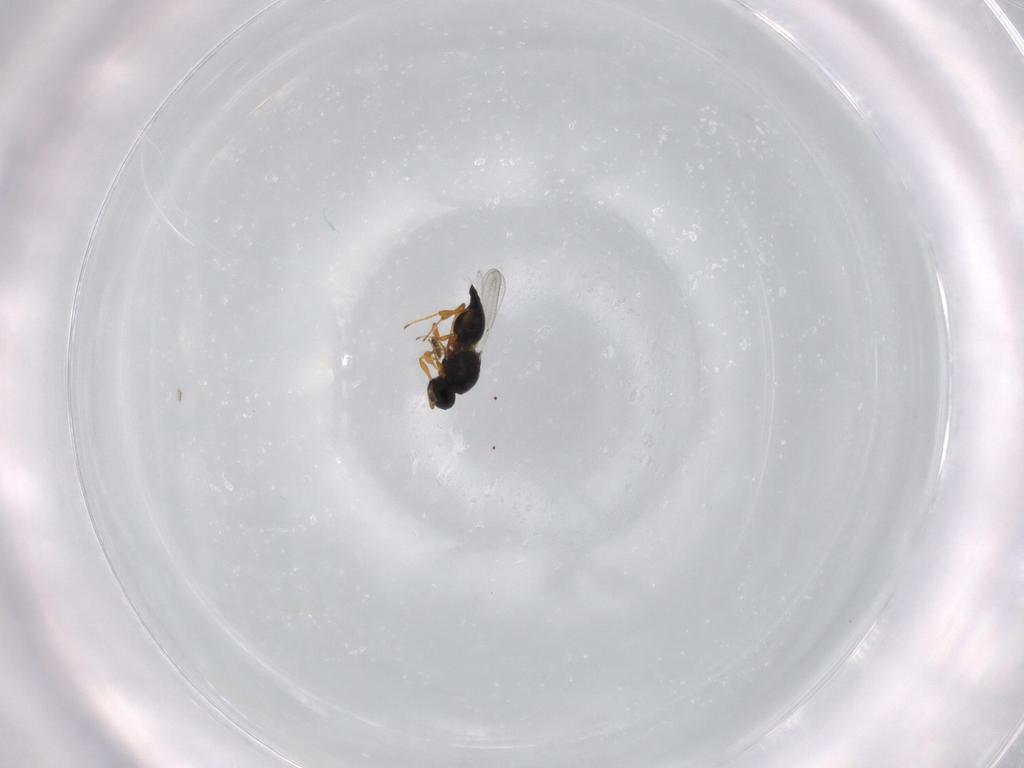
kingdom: Animalia
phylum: Arthropoda
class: Insecta
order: Hymenoptera
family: Platygastridae
